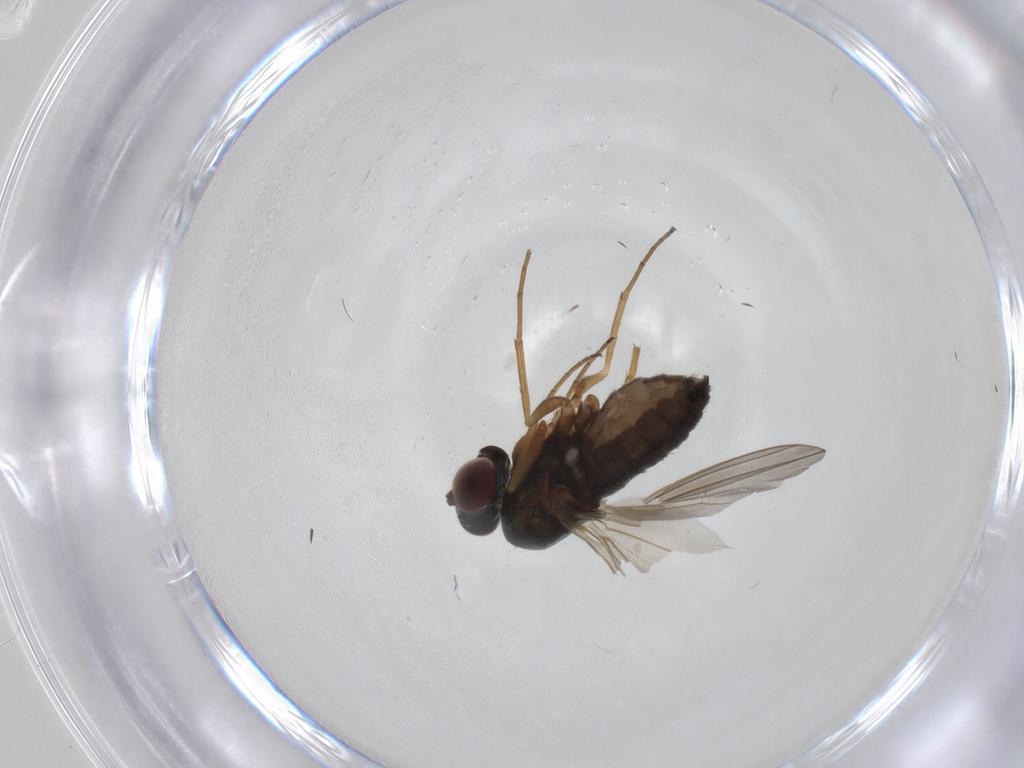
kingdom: Animalia
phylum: Arthropoda
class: Insecta
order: Diptera
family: Dolichopodidae
